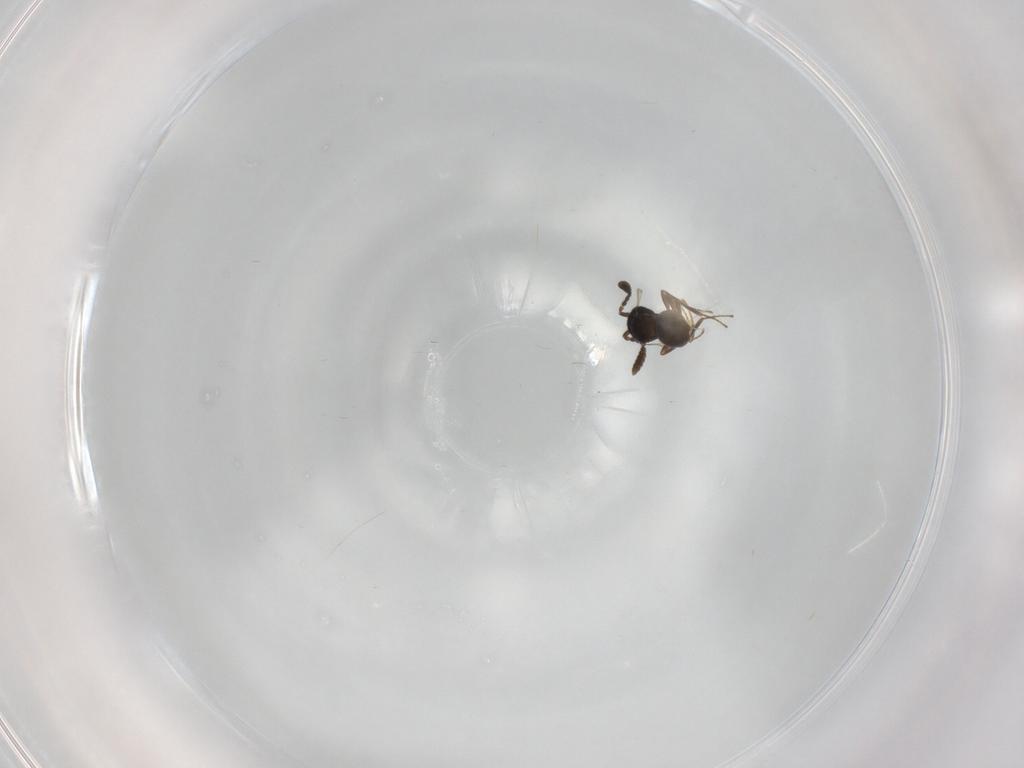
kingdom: Animalia
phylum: Arthropoda
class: Insecta
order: Hymenoptera
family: Scelionidae
